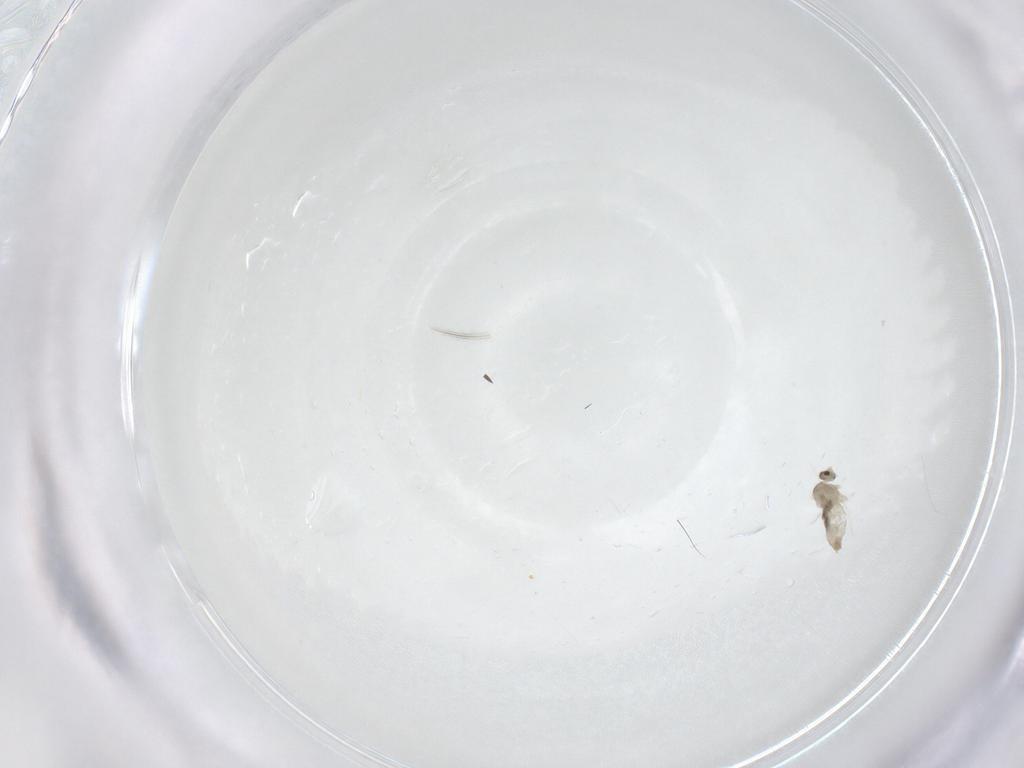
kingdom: Animalia
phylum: Arthropoda
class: Insecta
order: Diptera
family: Cecidomyiidae
